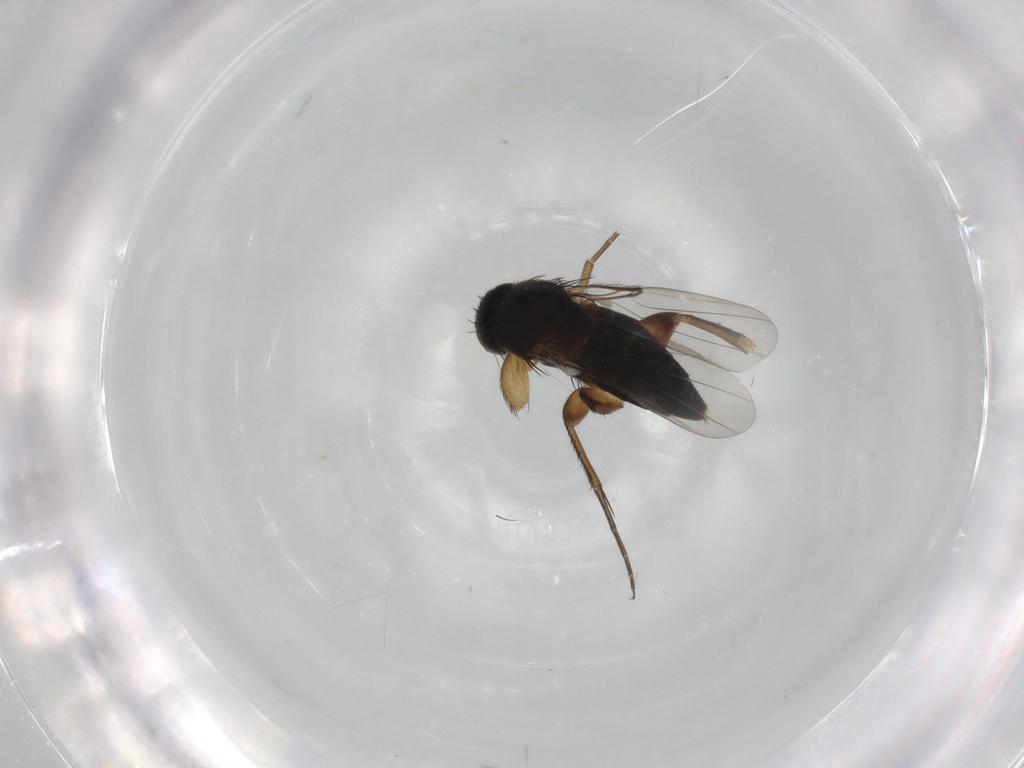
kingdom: Animalia
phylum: Arthropoda
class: Insecta
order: Diptera
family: Phoridae
